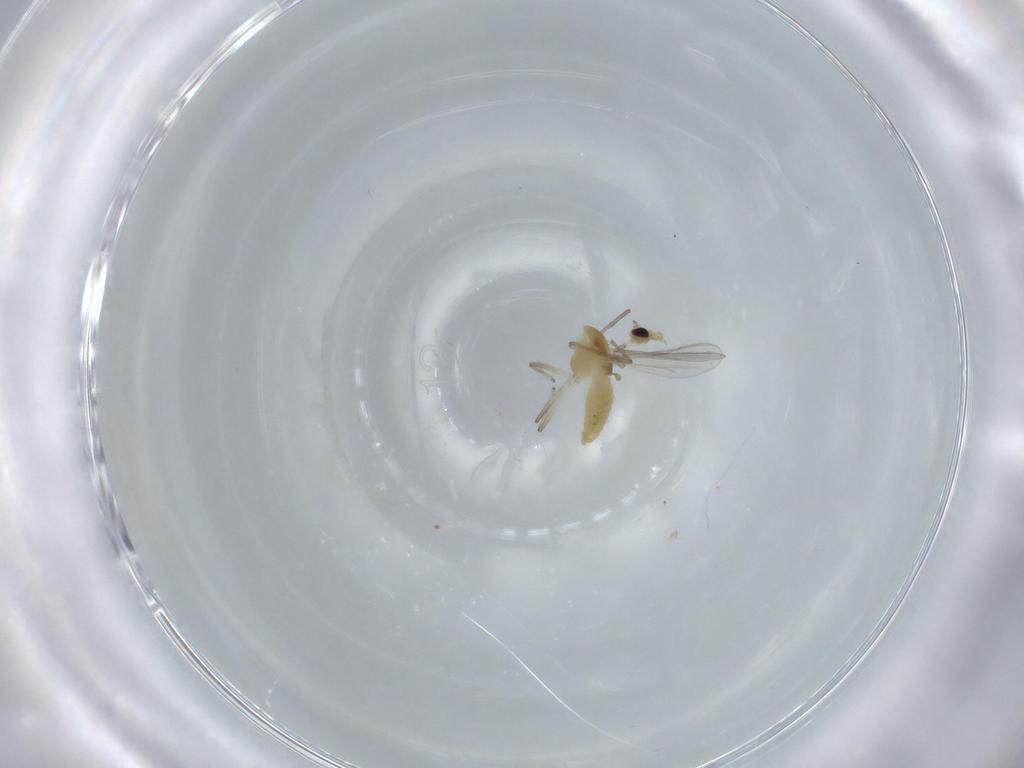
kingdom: Animalia
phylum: Arthropoda
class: Insecta
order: Diptera
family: Chironomidae
